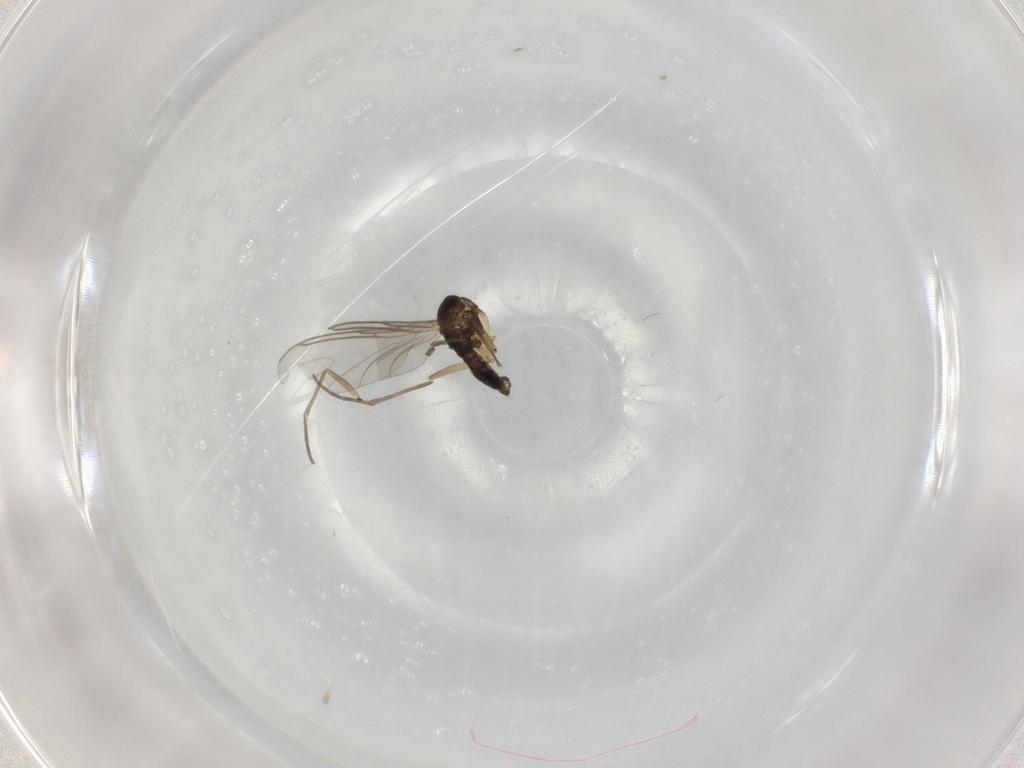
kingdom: Animalia
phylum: Arthropoda
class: Insecta
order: Diptera
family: Sciaridae
